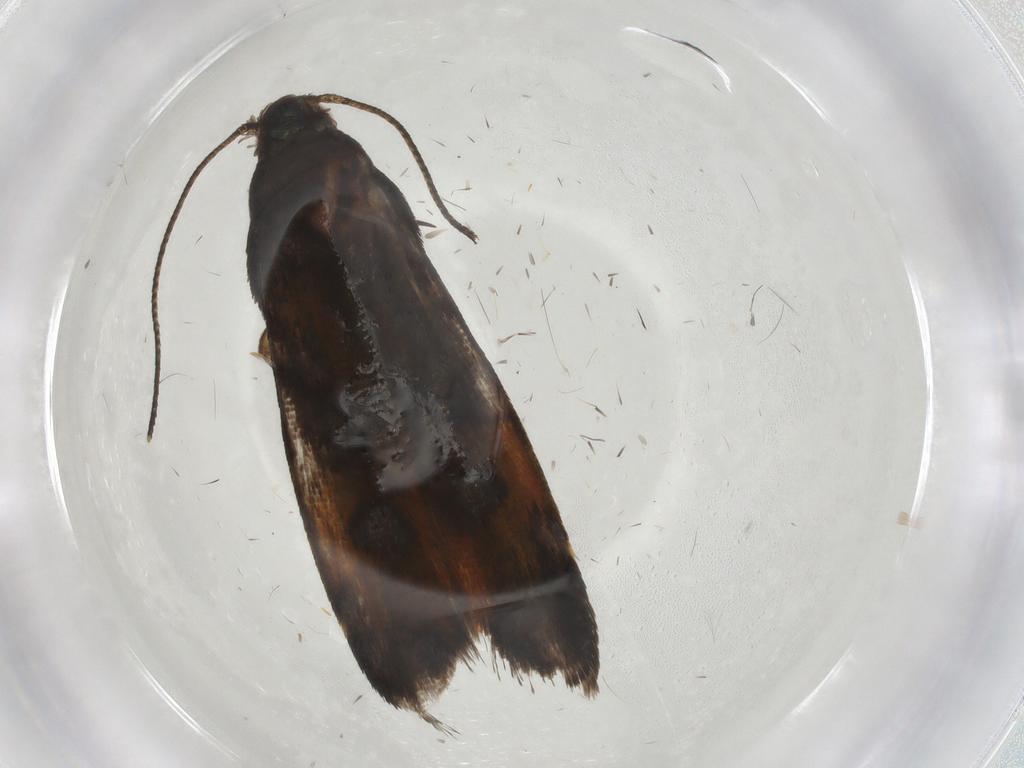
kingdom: Animalia
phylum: Arthropoda
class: Insecta
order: Lepidoptera
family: Gelechiidae
